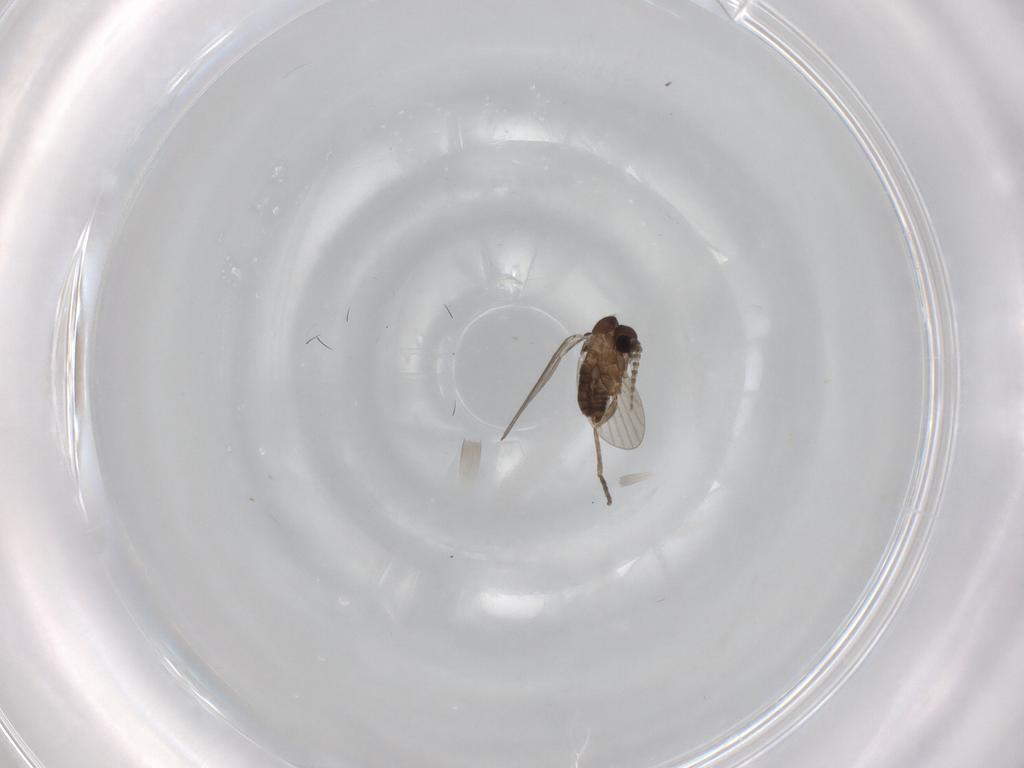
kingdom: Animalia
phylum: Arthropoda
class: Insecta
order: Diptera
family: Cecidomyiidae
